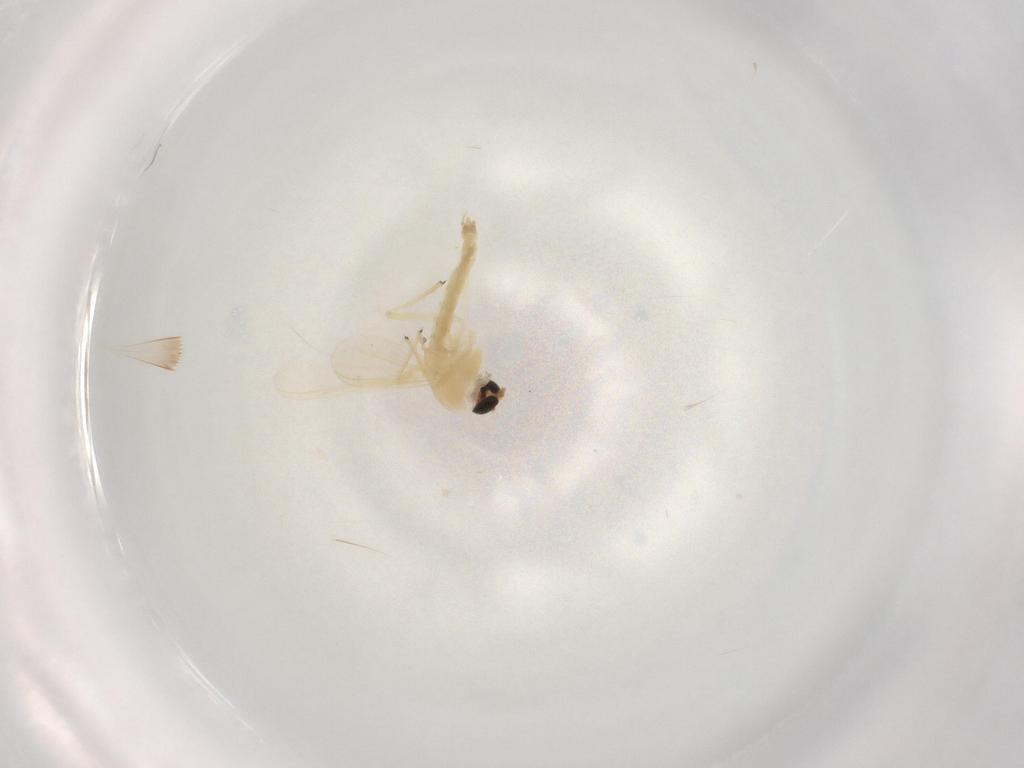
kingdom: Animalia
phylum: Arthropoda
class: Insecta
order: Diptera
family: Chironomidae
